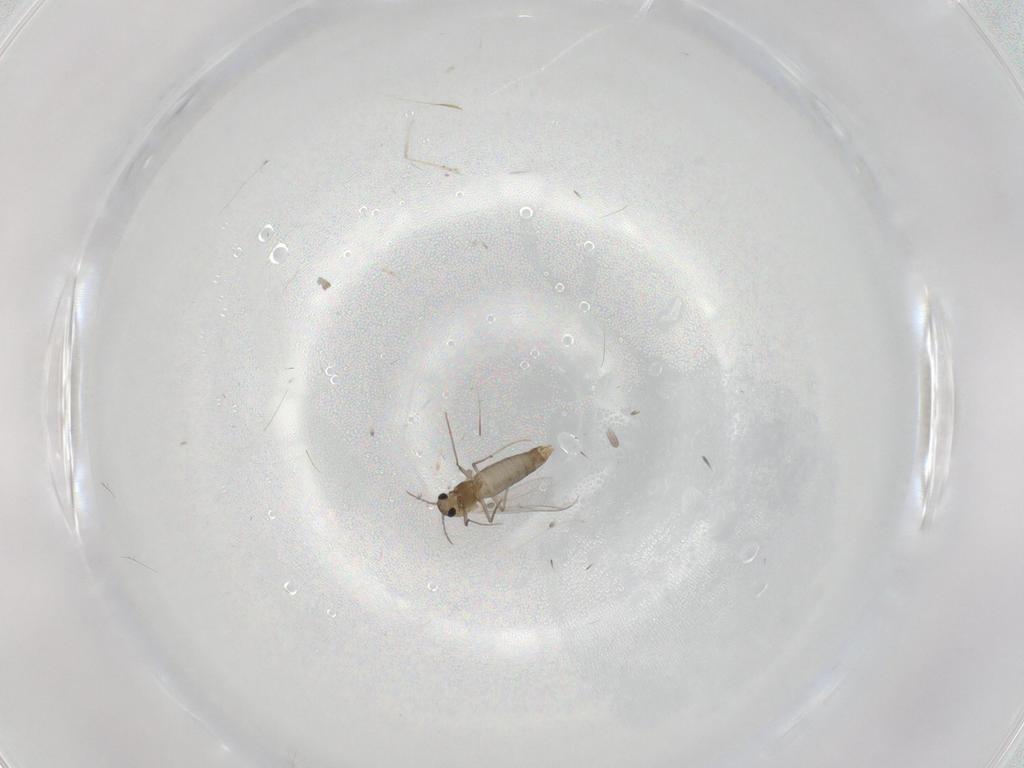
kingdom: Animalia
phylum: Arthropoda
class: Insecta
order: Diptera
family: Chironomidae
